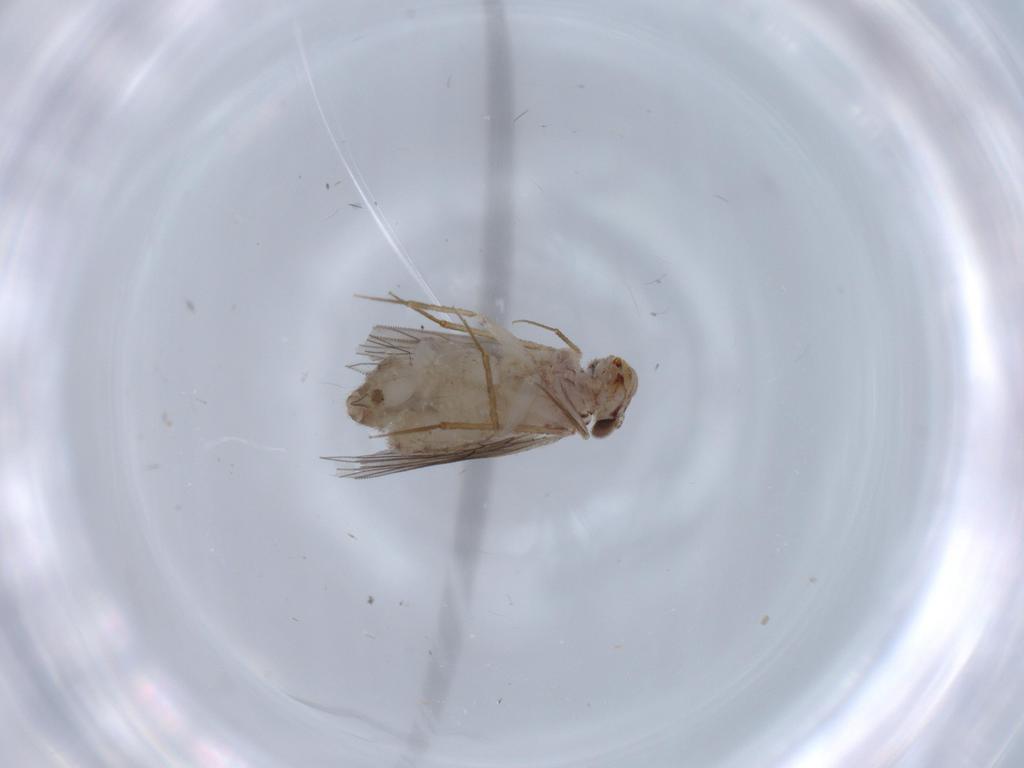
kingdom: Animalia
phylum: Arthropoda
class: Insecta
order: Psocodea
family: Lepidopsocidae
